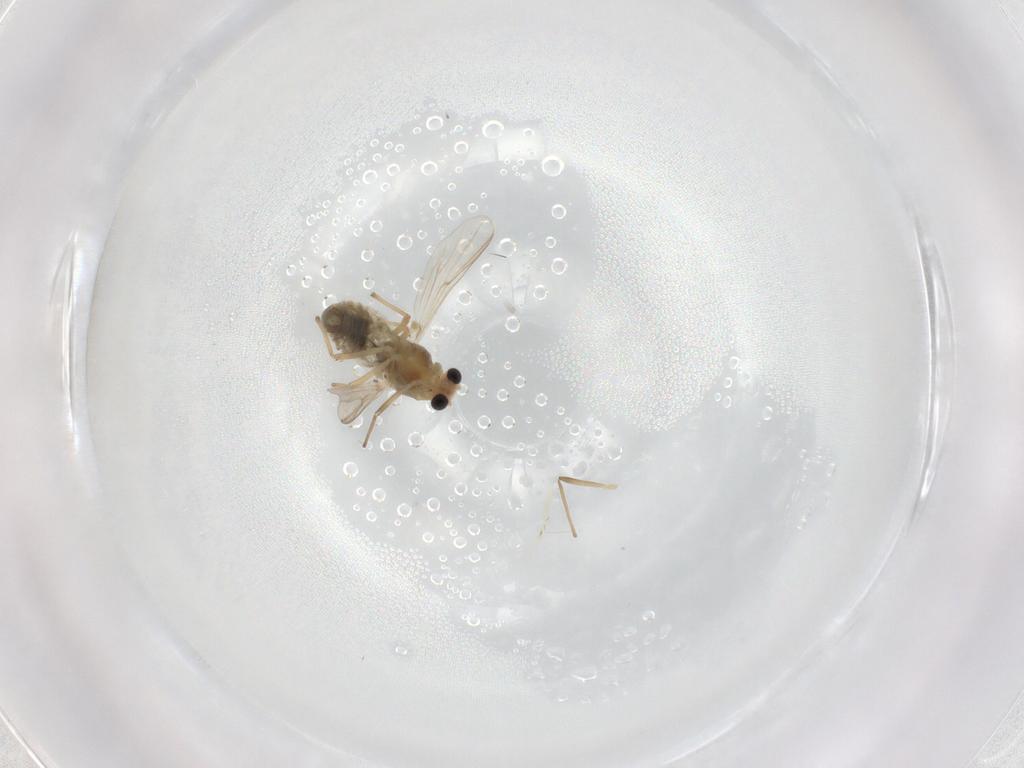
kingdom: Animalia
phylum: Arthropoda
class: Insecta
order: Diptera
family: Chironomidae
